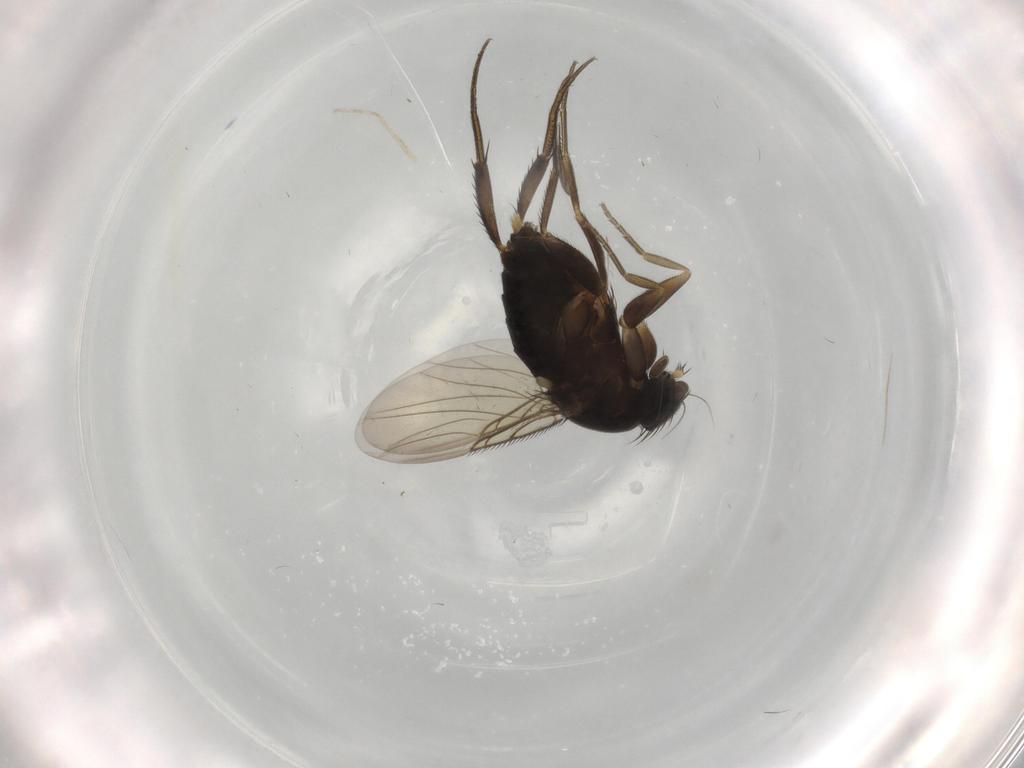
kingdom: Animalia
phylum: Arthropoda
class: Insecta
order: Diptera
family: Phoridae
